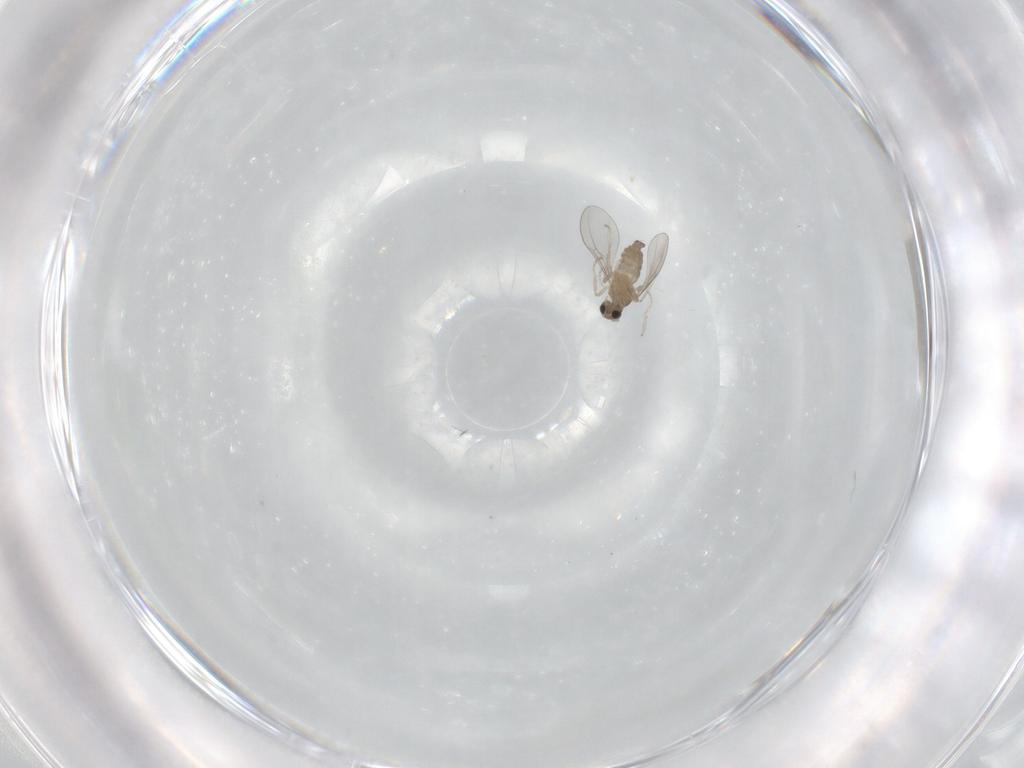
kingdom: Animalia
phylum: Arthropoda
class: Insecta
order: Diptera
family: Cecidomyiidae
